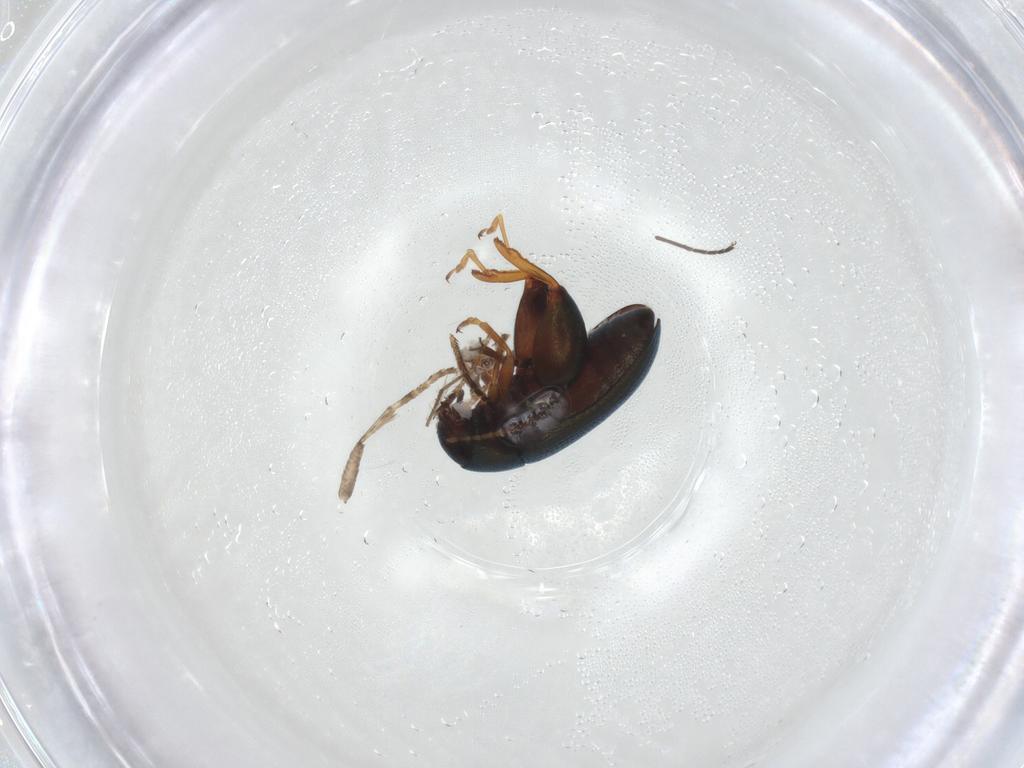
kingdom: Animalia
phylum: Arthropoda
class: Insecta
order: Coleoptera
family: Chrysomelidae
